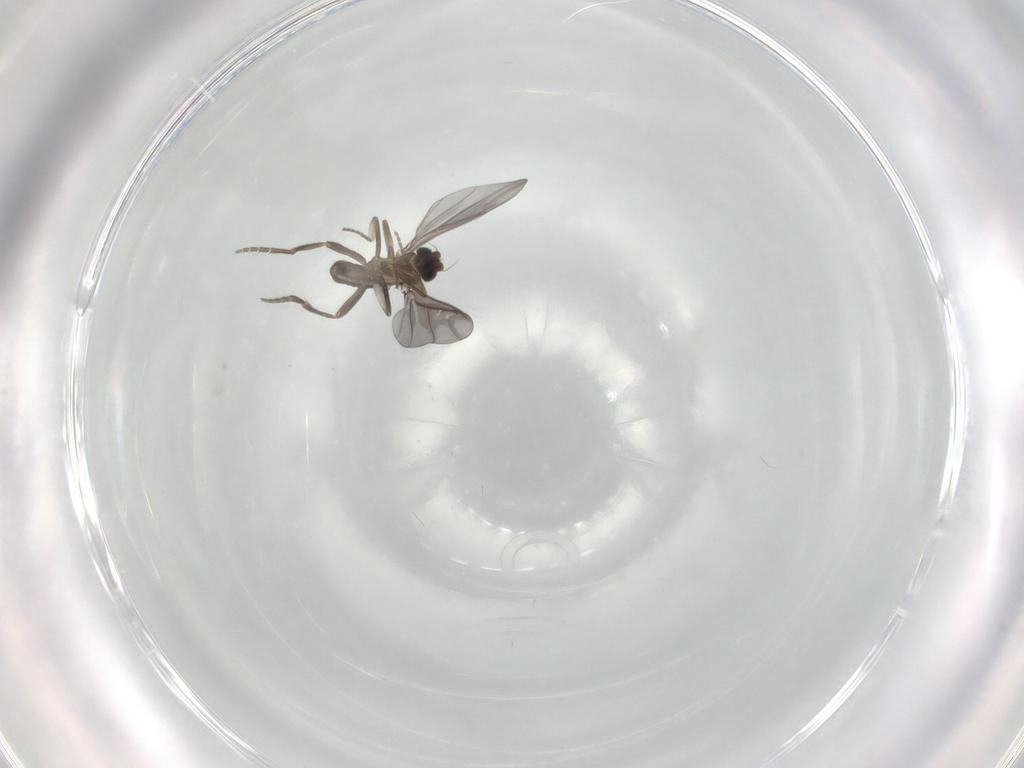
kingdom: Animalia
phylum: Arthropoda
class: Insecta
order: Diptera
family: Phoridae
